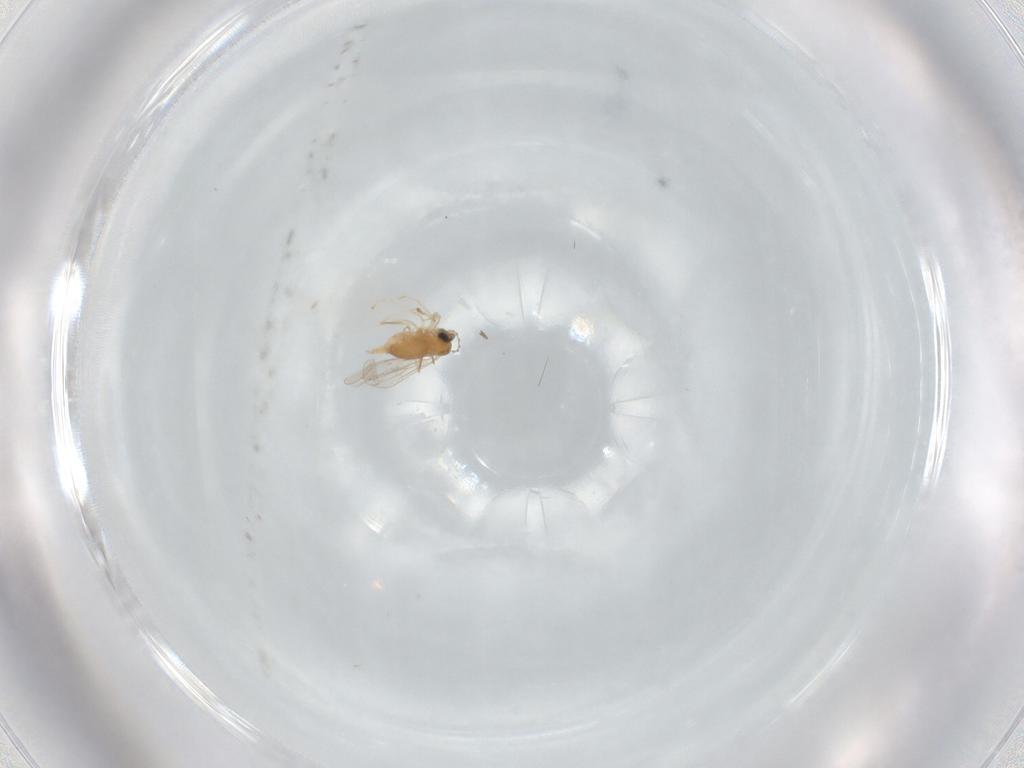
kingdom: Animalia
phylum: Arthropoda
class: Insecta
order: Diptera
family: Cecidomyiidae
